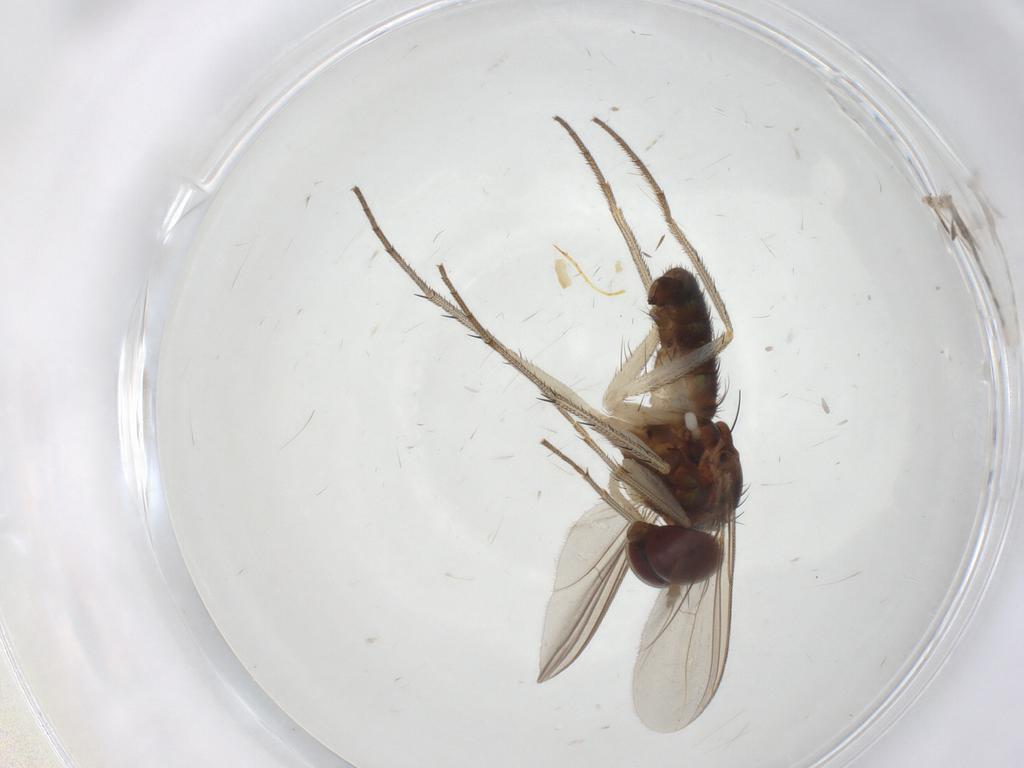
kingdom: Animalia
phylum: Arthropoda
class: Insecta
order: Diptera
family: Dolichopodidae
